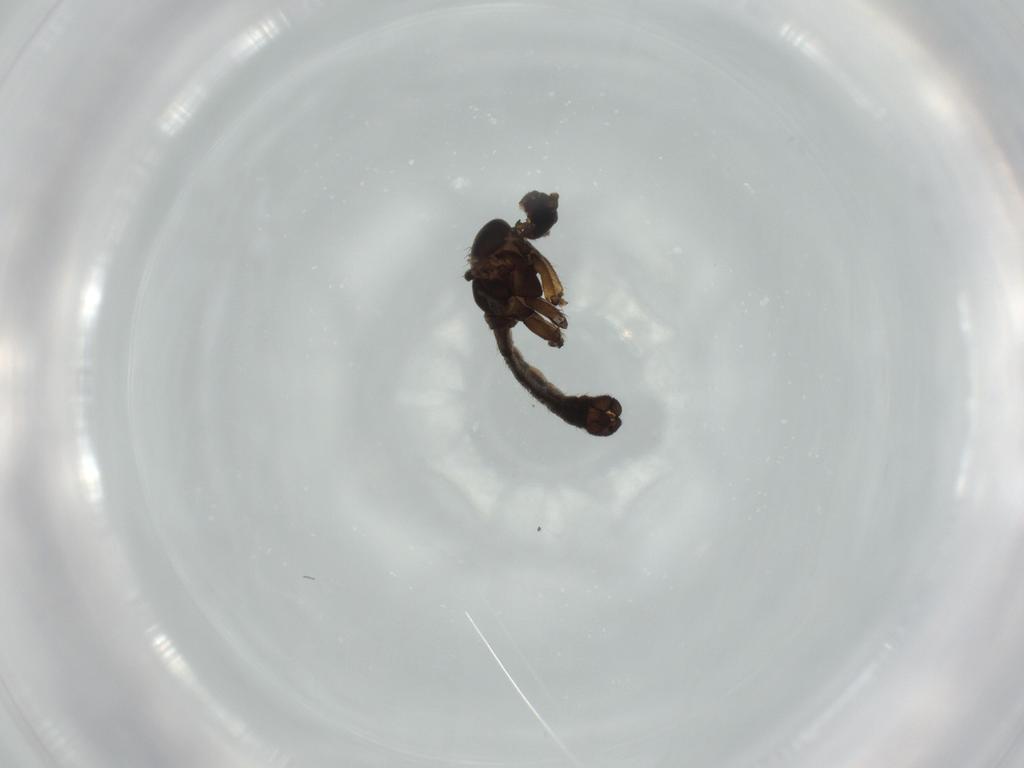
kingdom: Animalia
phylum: Arthropoda
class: Insecta
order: Diptera
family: Sciaridae
